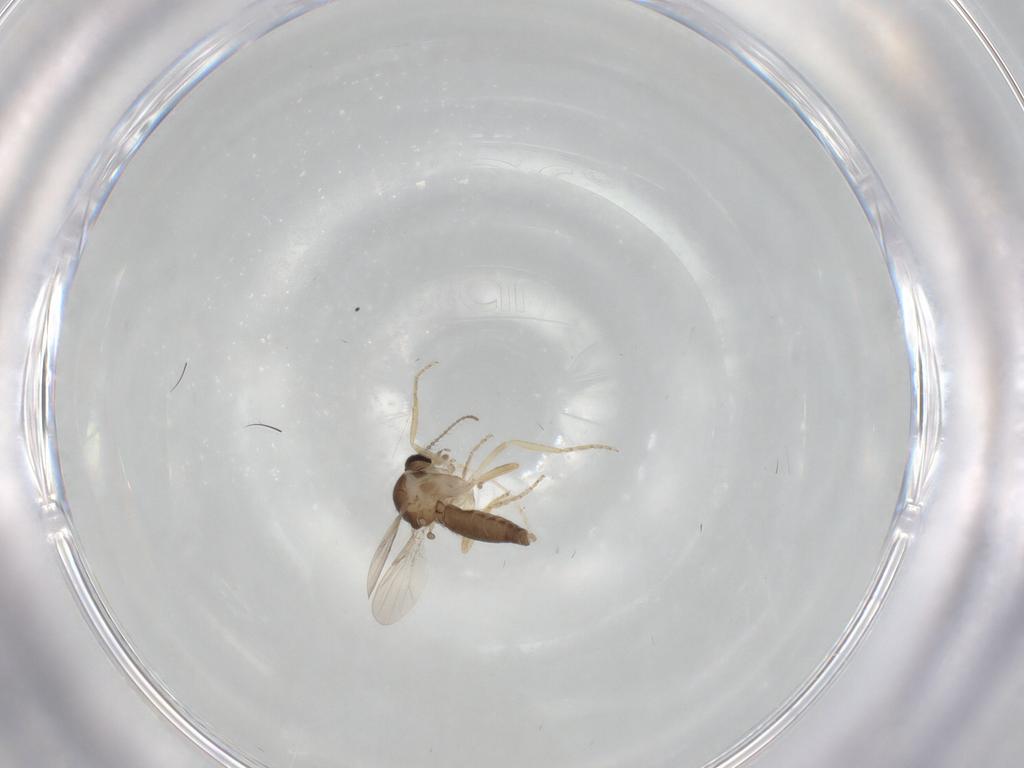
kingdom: Animalia
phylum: Arthropoda
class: Insecta
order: Diptera
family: Ceratopogonidae
